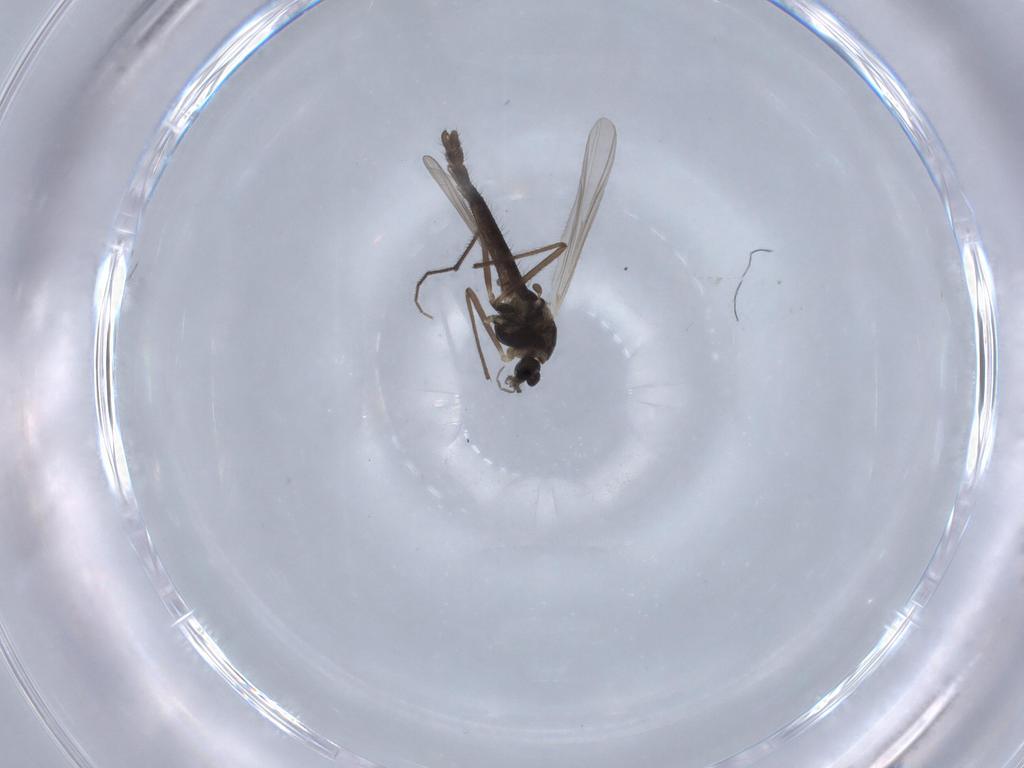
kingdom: Animalia
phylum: Arthropoda
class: Insecta
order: Diptera
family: Chironomidae
